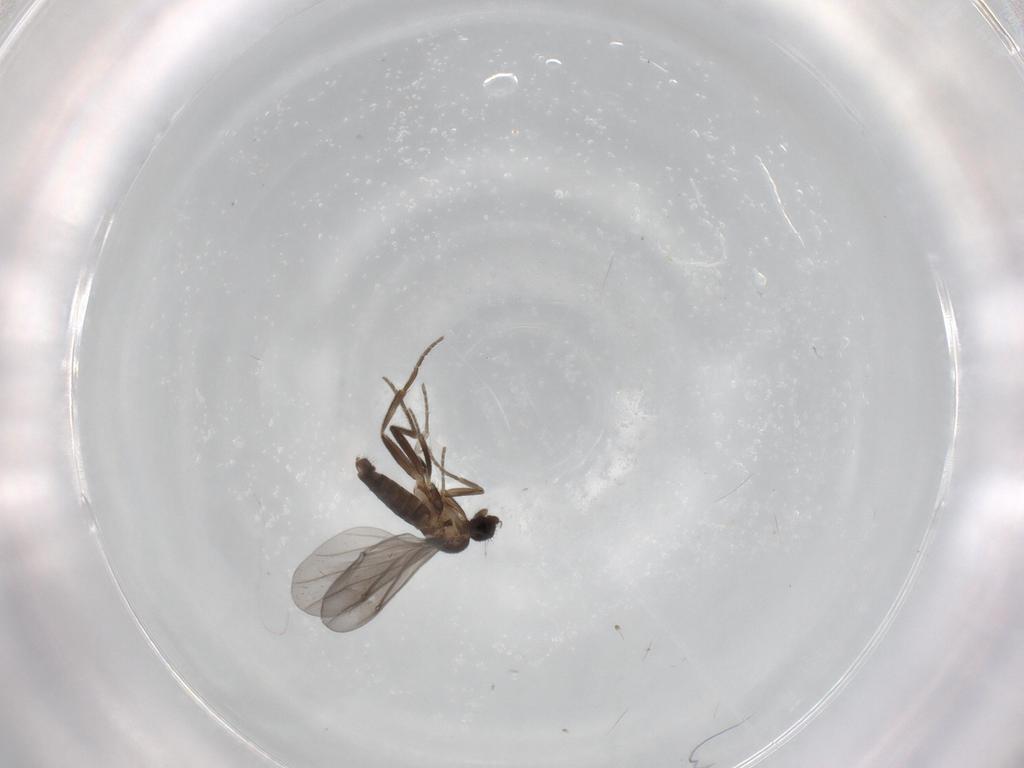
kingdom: Animalia
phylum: Arthropoda
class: Insecta
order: Diptera
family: Phoridae
